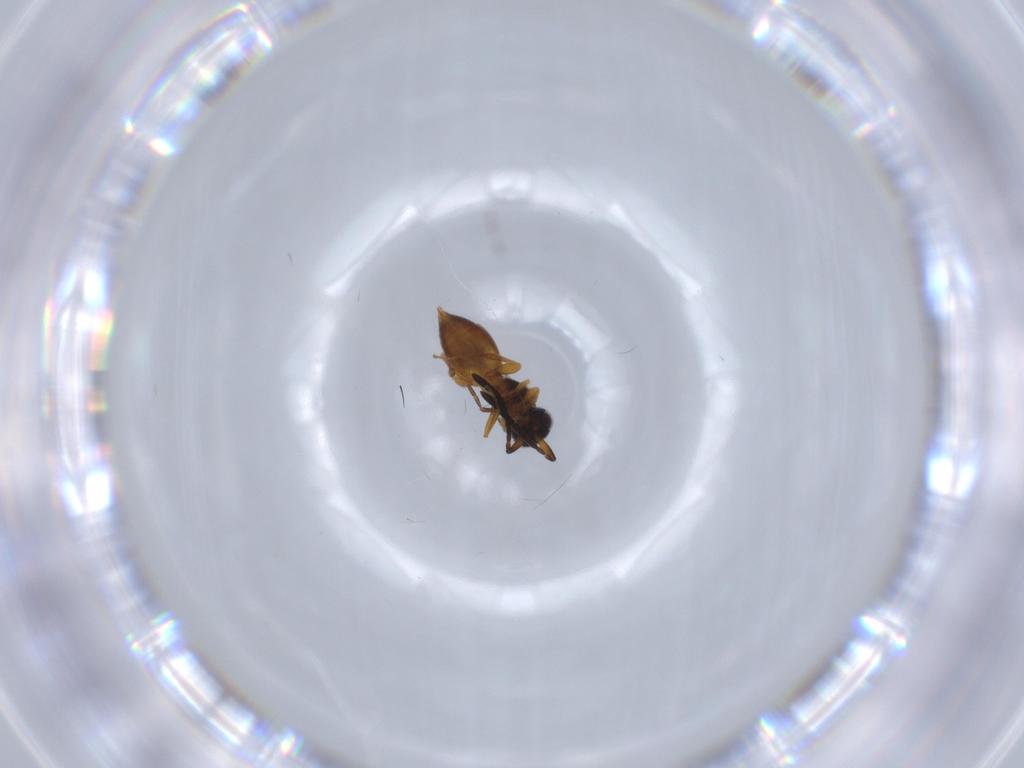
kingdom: Animalia
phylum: Arthropoda
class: Insecta
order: Hymenoptera
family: Braconidae
